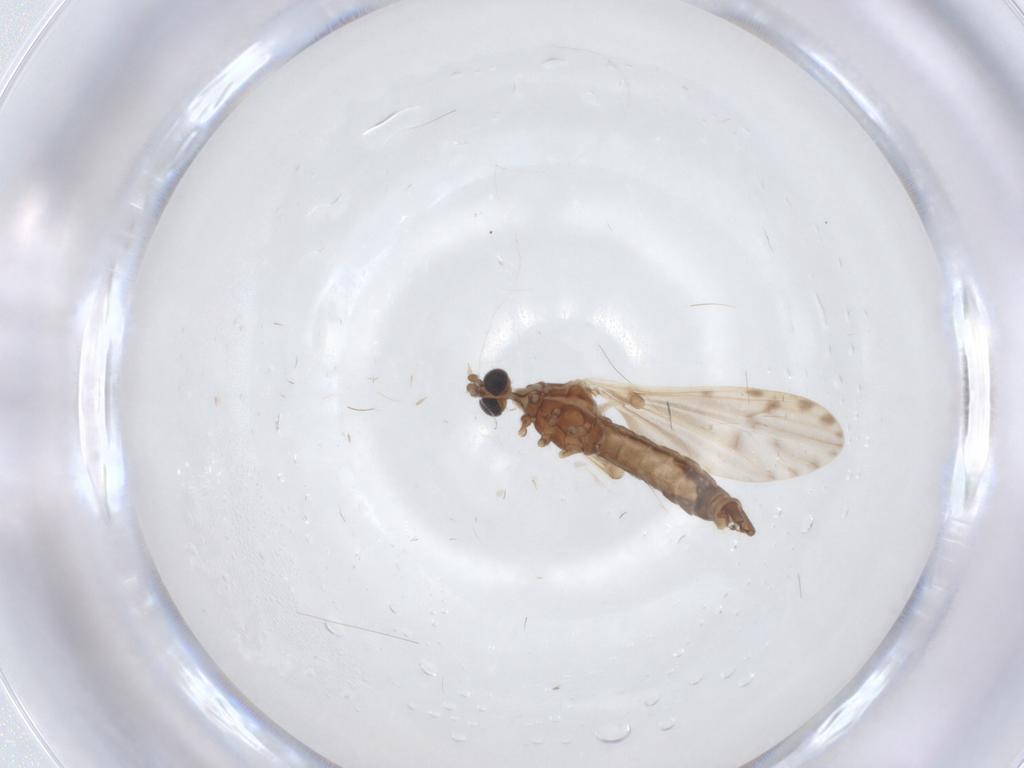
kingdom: Animalia
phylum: Arthropoda
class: Insecta
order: Diptera
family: Limoniidae
